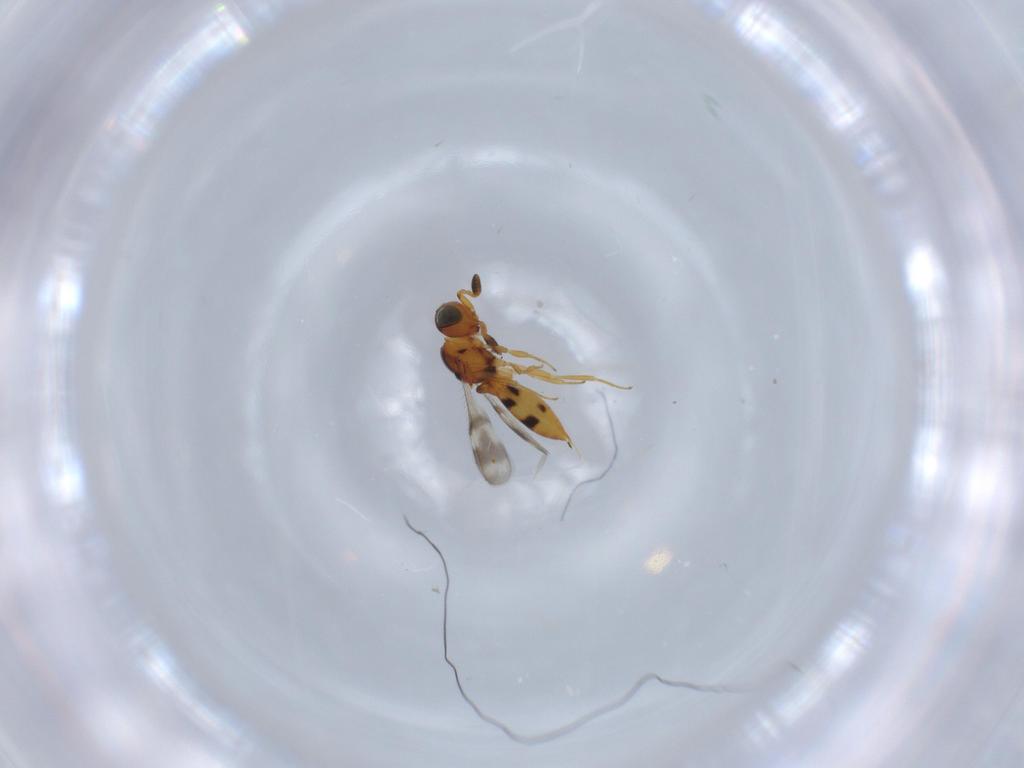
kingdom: Animalia
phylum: Arthropoda
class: Insecta
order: Hymenoptera
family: Scelionidae
